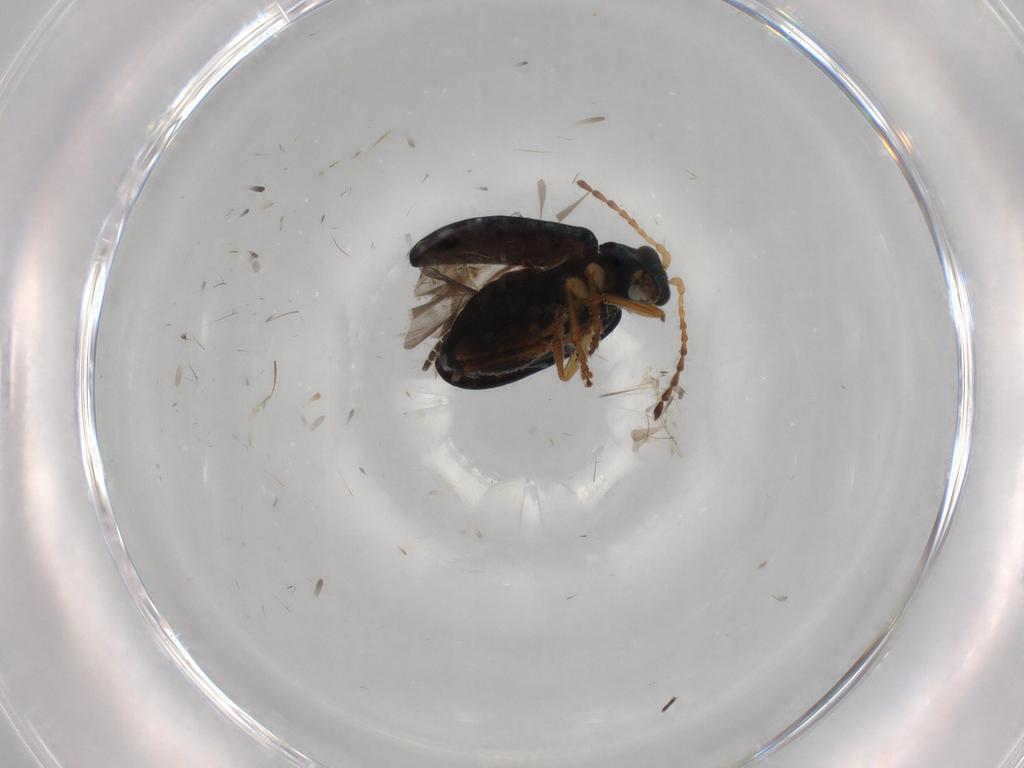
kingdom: Animalia
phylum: Arthropoda
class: Insecta
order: Coleoptera
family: Chrysomelidae
